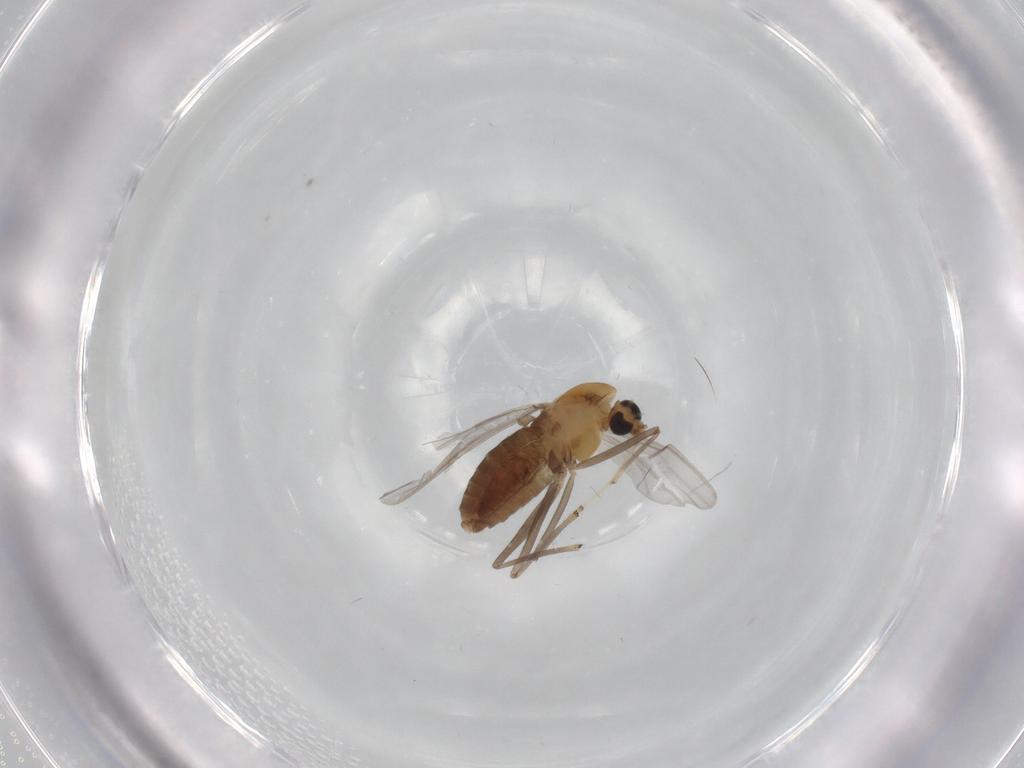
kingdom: Animalia
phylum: Arthropoda
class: Insecta
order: Diptera
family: Chironomidae
